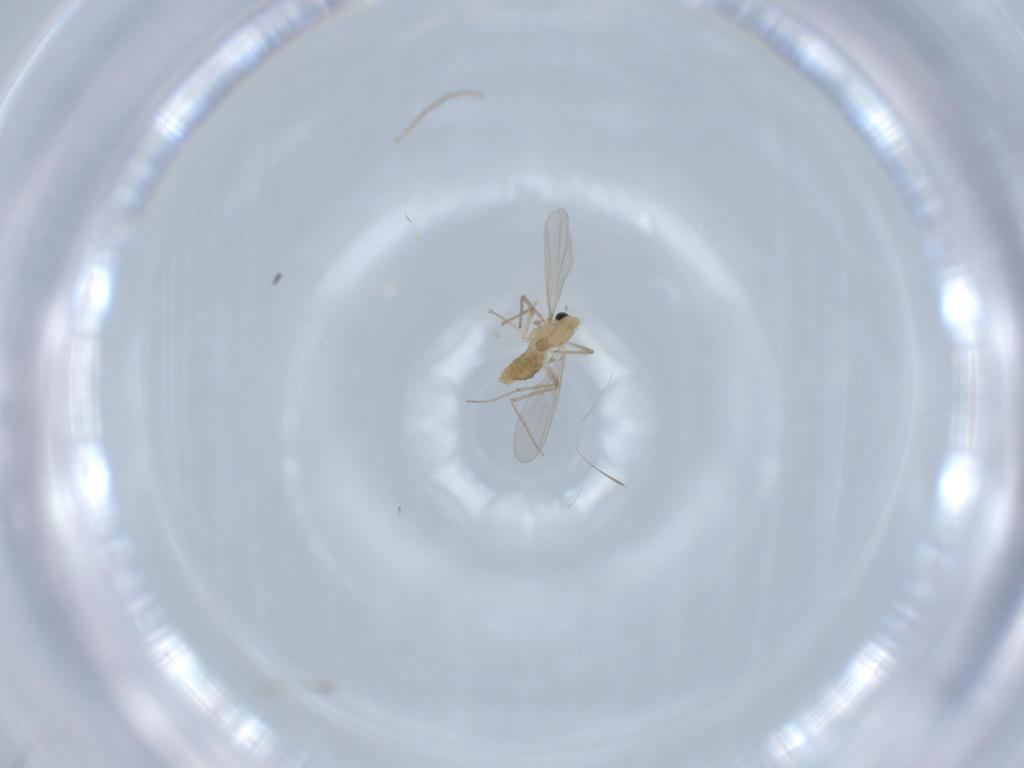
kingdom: Animalia
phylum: Arthropoda
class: Insecta
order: Diptera
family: Chironomidae
